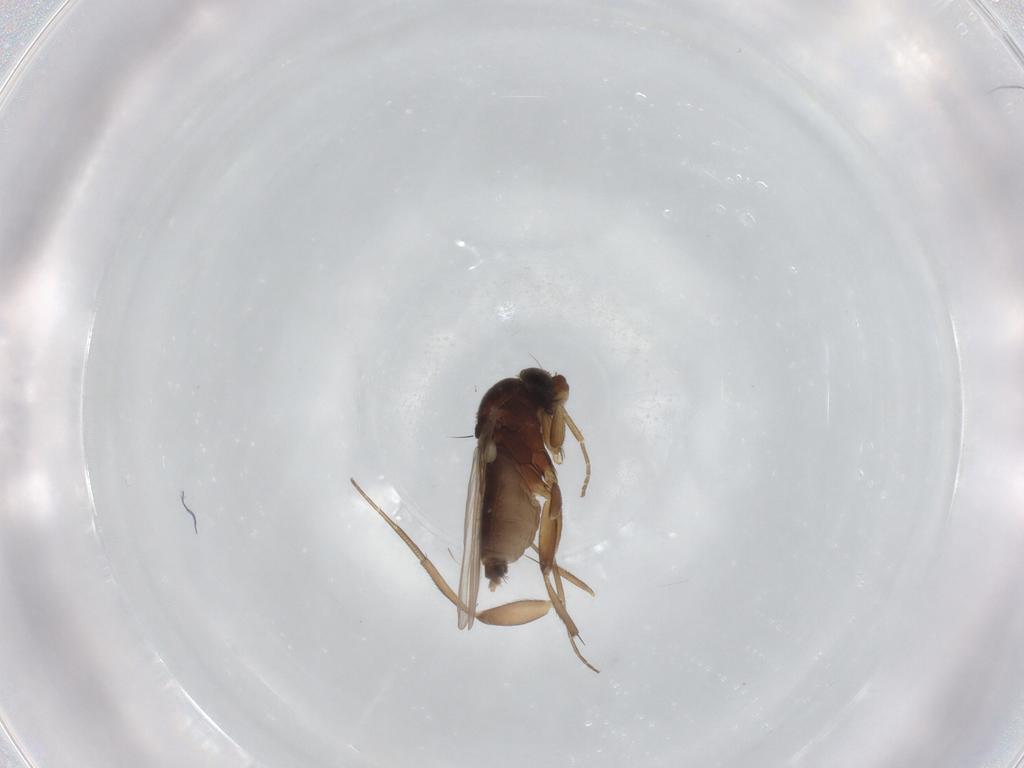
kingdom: Animalia
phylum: Arthropoda
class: Insecta
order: Diptera
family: Phoridae
